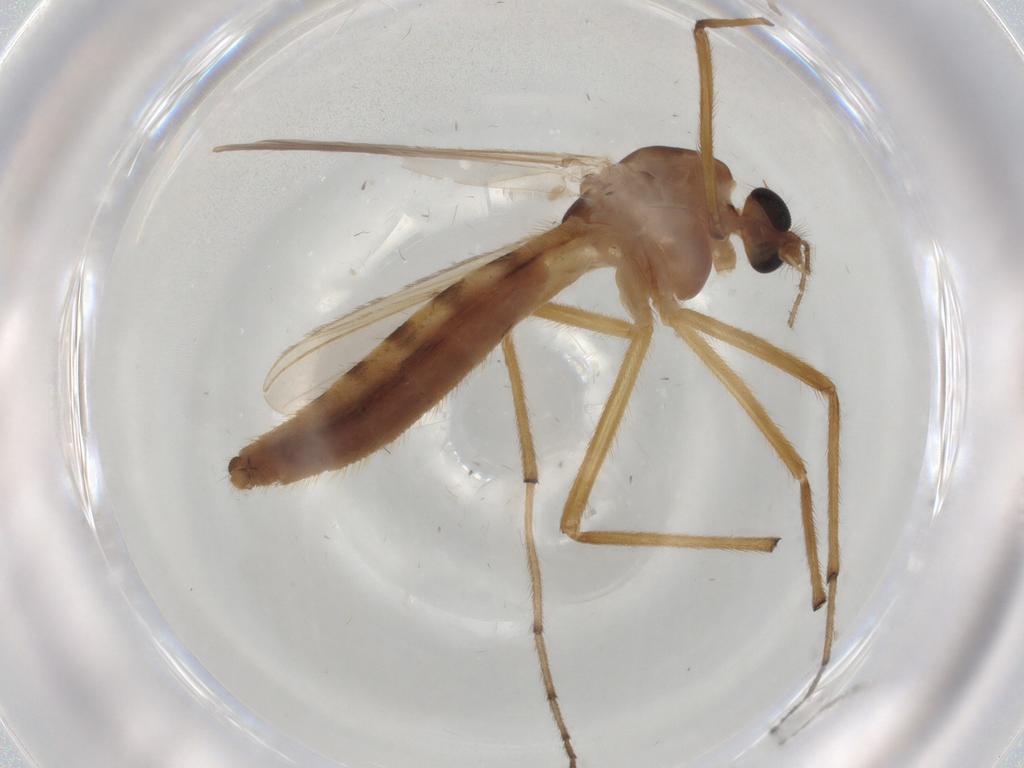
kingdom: Animalia
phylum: Arthropoda
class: Insecta
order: Diptera
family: Chironomidae
